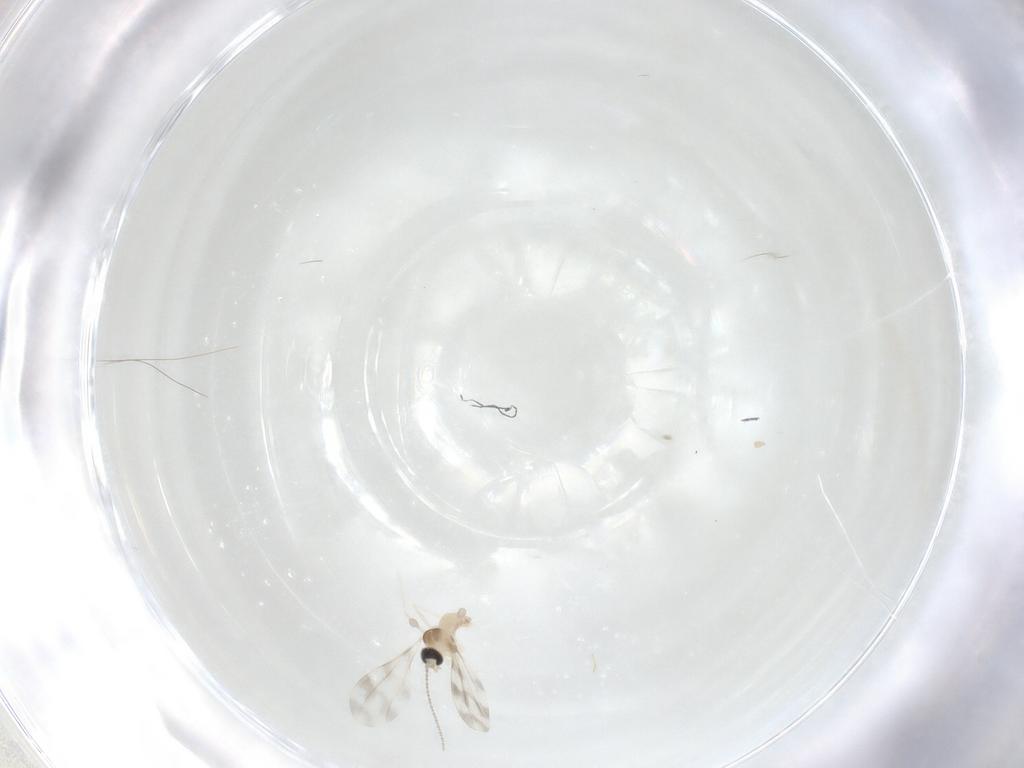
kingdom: Animalia
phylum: Arthropoda
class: Insecta
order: Diptera
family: Cecidomyiidae
